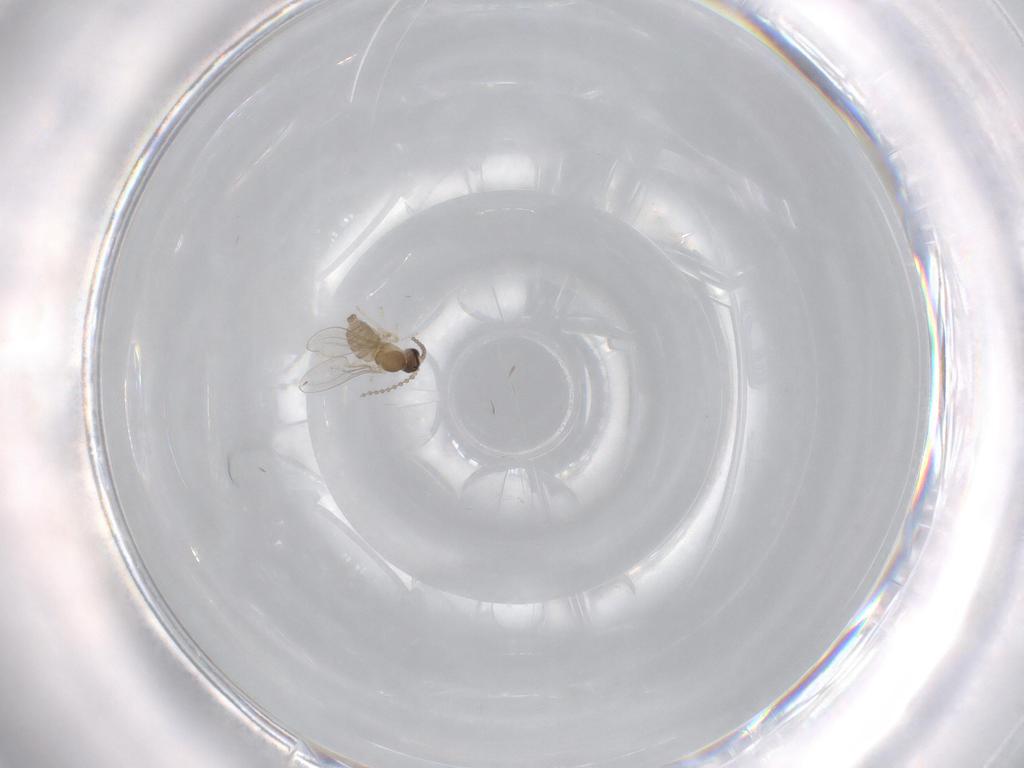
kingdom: Animalia
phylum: Arthropoda
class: Insecta
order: Diptera
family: Cecidomyiidae
